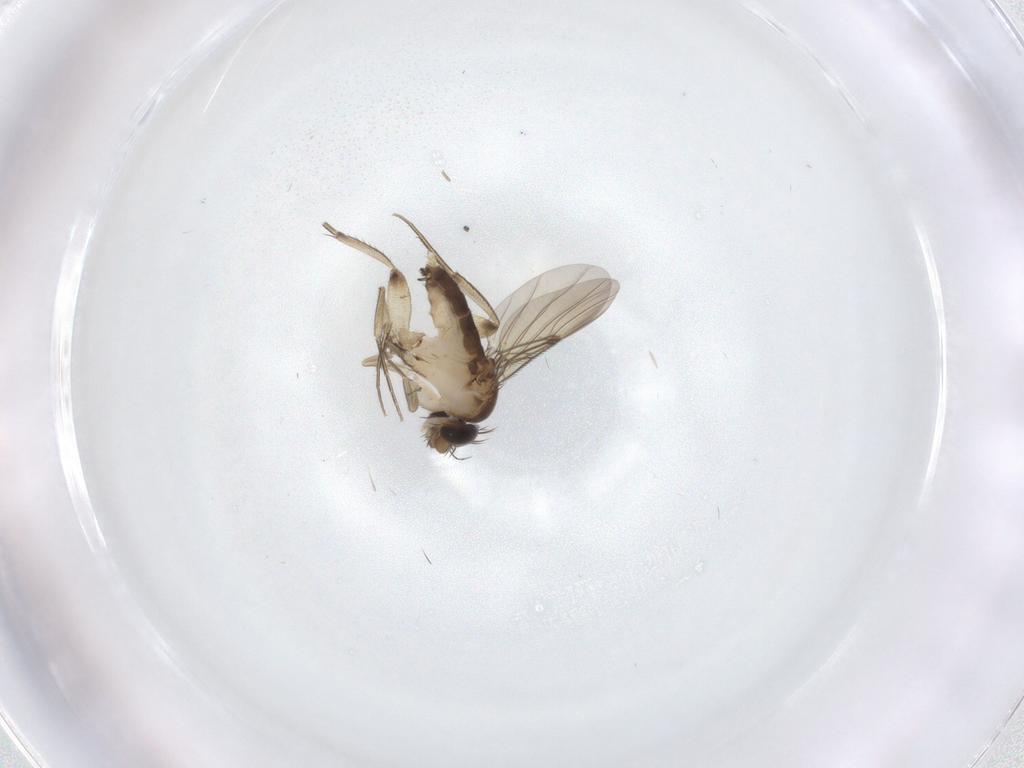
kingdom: Animalia
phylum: Arthropoda
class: Insecta
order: Diptera
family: Phoridae
